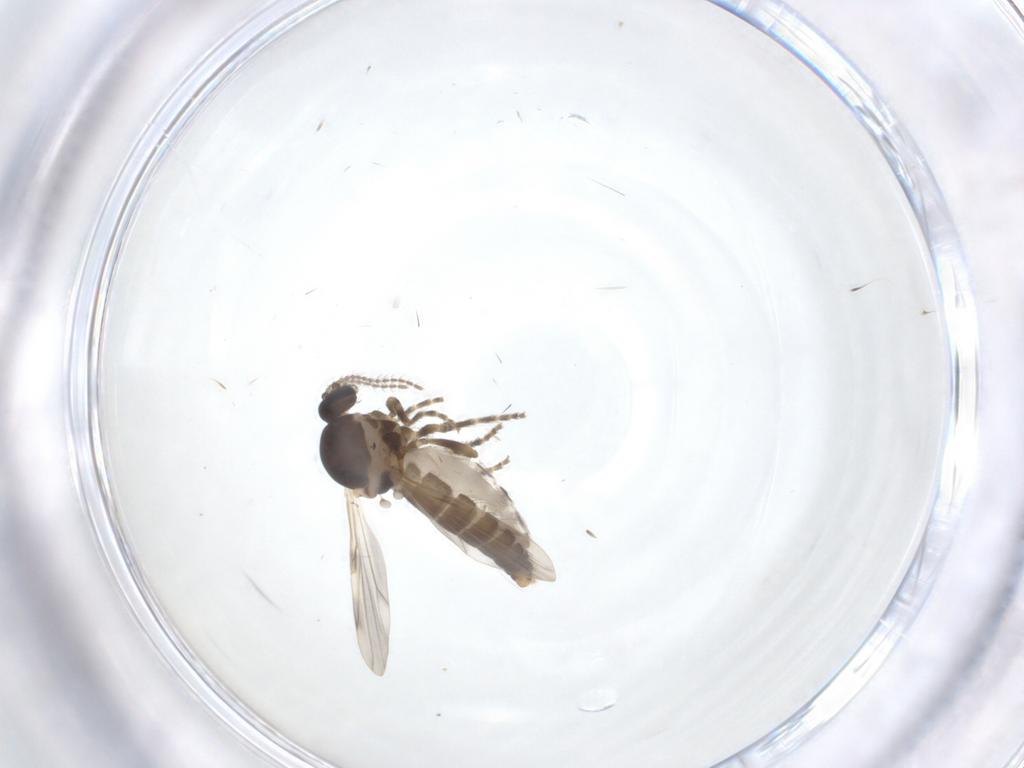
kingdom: Animalia
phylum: Arthropoda
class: Insecta
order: Diptera
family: Ceratopogonidae
